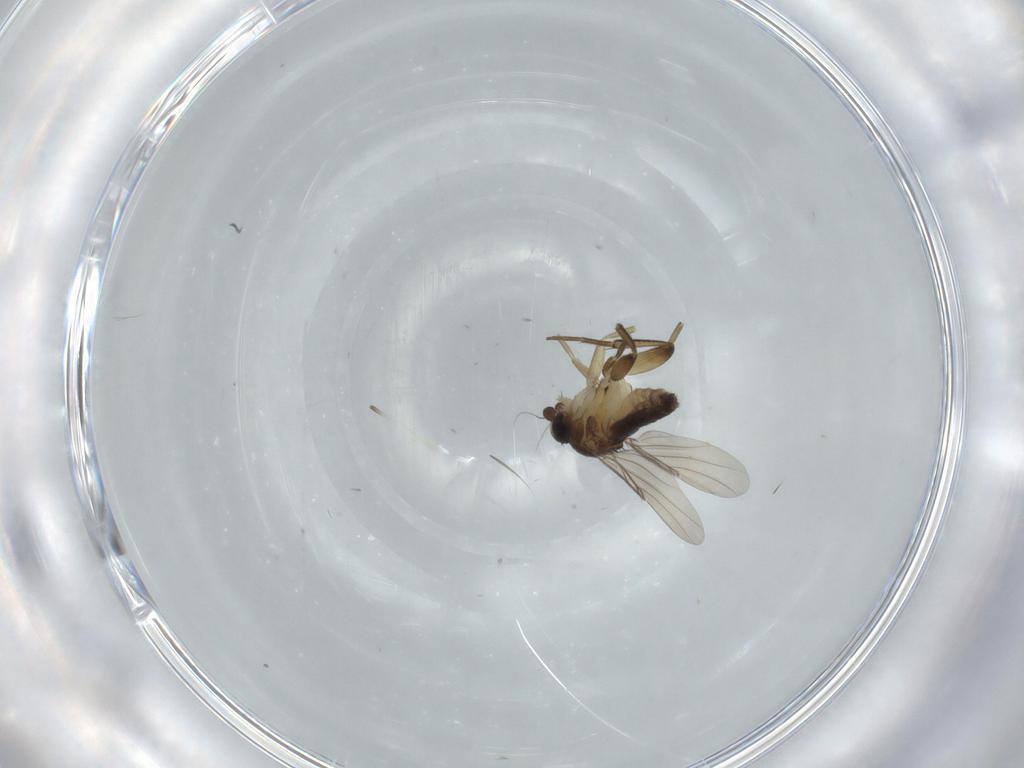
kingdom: Animalia
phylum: Arthropoda
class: Insecta
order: Diptera
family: Phoridae
